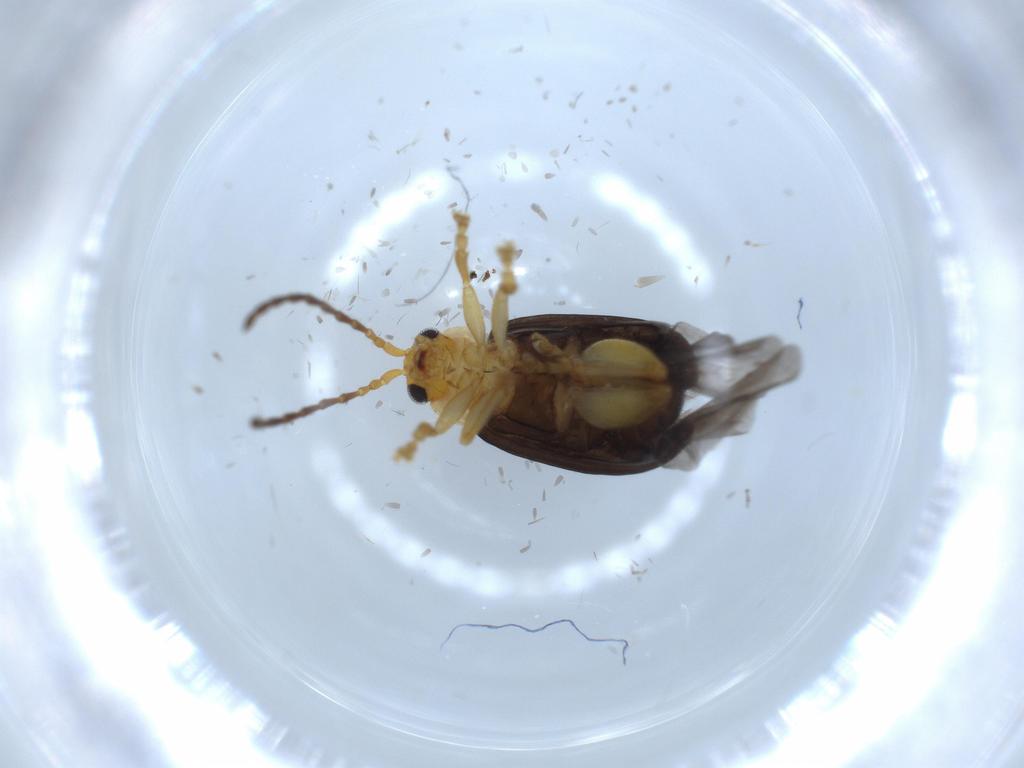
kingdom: Animalia
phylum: Arthropoda
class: Insecta
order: Coleoptera
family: Chrysomelidae
